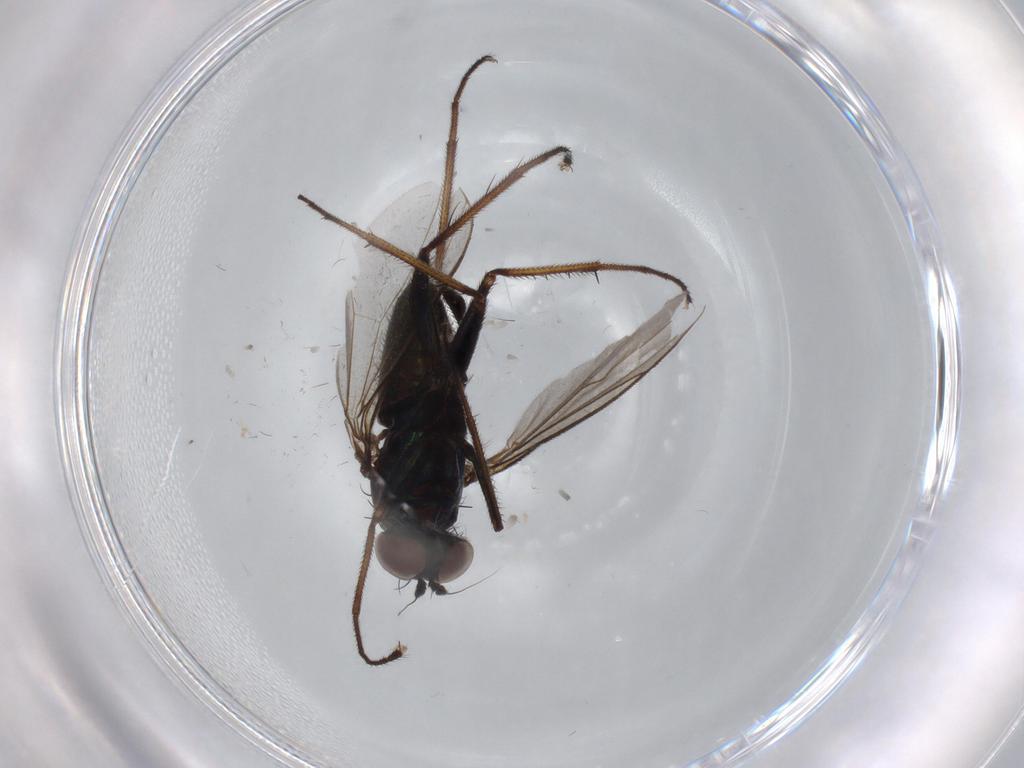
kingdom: Animalia
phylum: Arthropoda
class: Insecta
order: Diptera
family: Dolichopodidae
